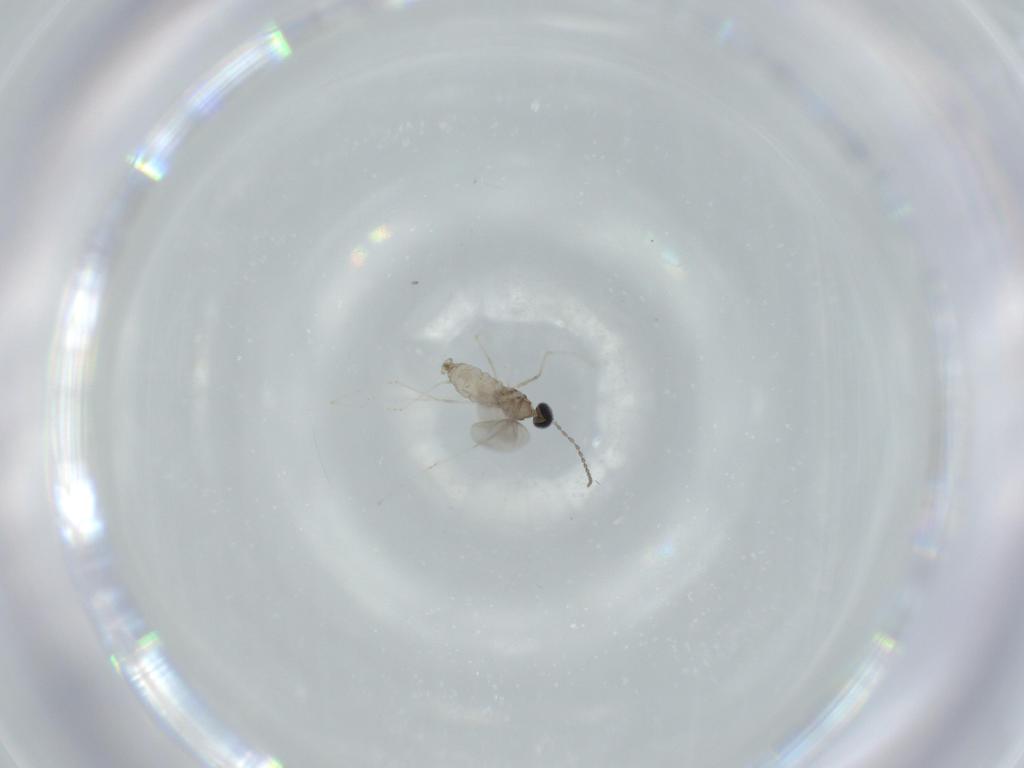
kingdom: Animalia
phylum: Arthropoda
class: Insecta
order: Diptera
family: Cecidomyiidae
